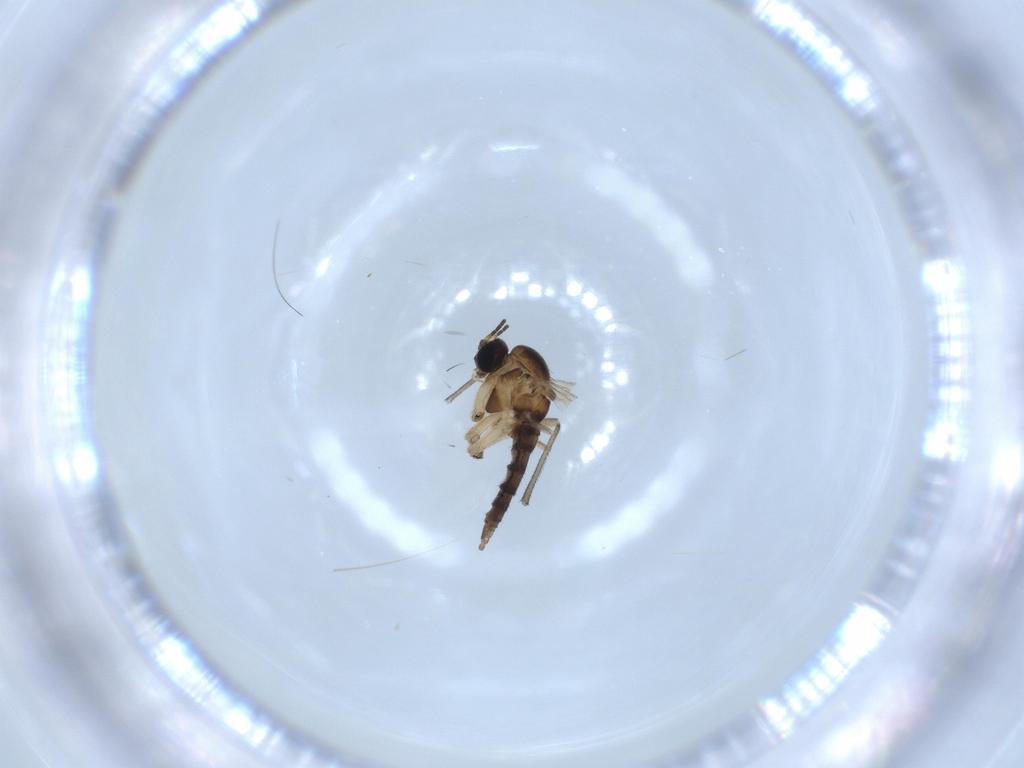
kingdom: Animalia
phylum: Arthropoda
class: Insecta
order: Diptera
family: Sciaridae
